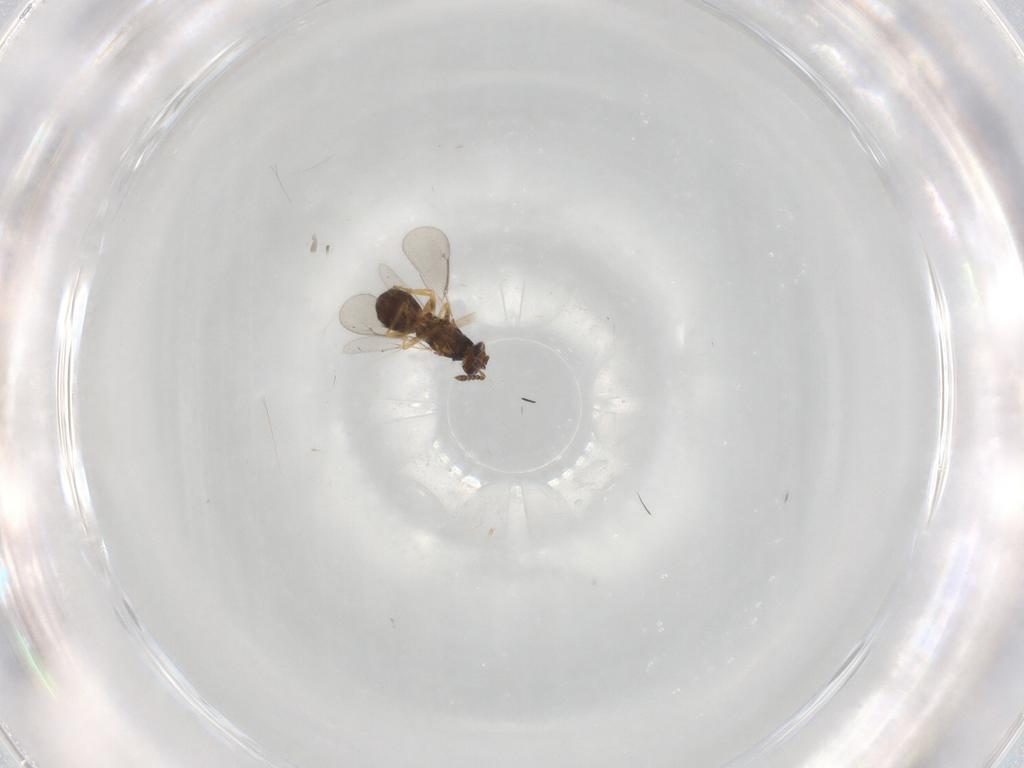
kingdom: Animalia
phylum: Arthropoda
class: Insecta
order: Hymenoptera
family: Eulophidae
